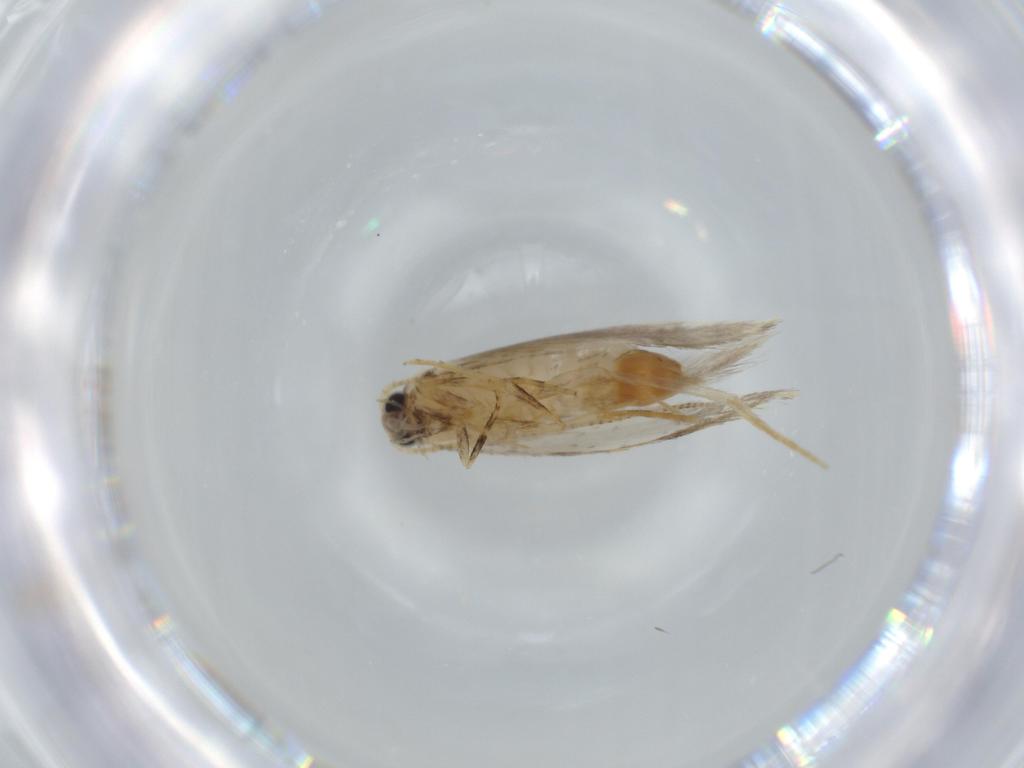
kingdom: Animalia
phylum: Arthropoda
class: Insecta
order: Lepidoptera
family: Tineidae
